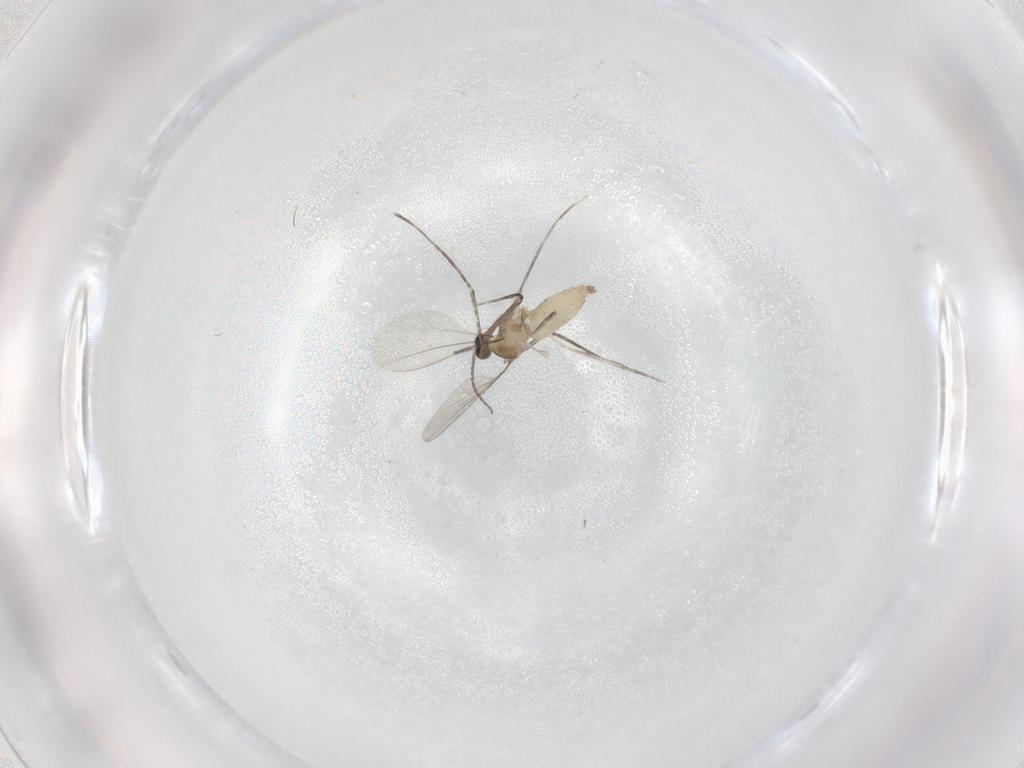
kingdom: Animalia
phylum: Arthropoda
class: Insecta
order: Diptera
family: Cecidomyiidae
